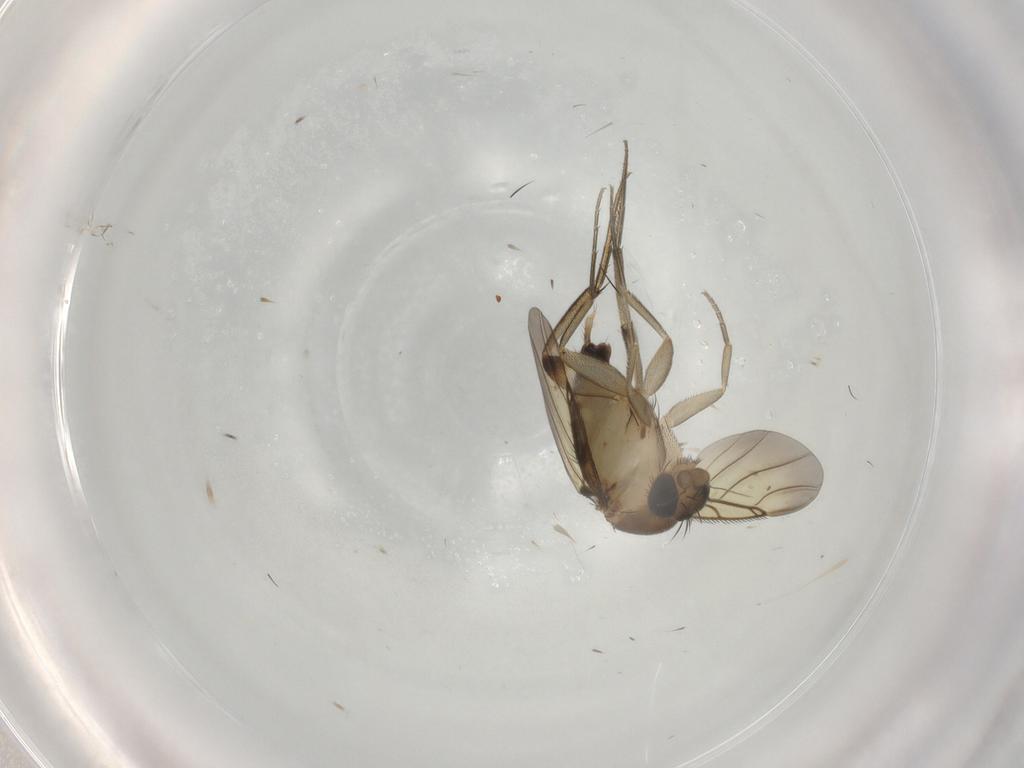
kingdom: Animalia
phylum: Arthropoda
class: Insecta
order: Diptera
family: Phoridae
